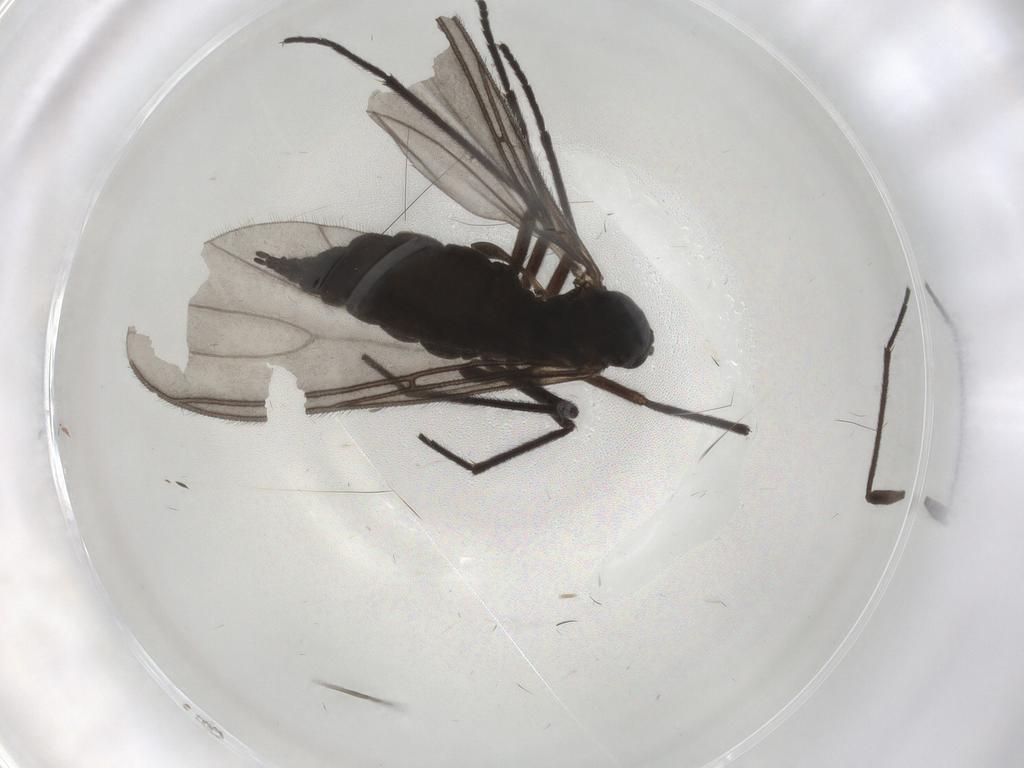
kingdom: Animalia
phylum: Arthropoda
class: Insecta
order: Diptera
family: Sciaridae
